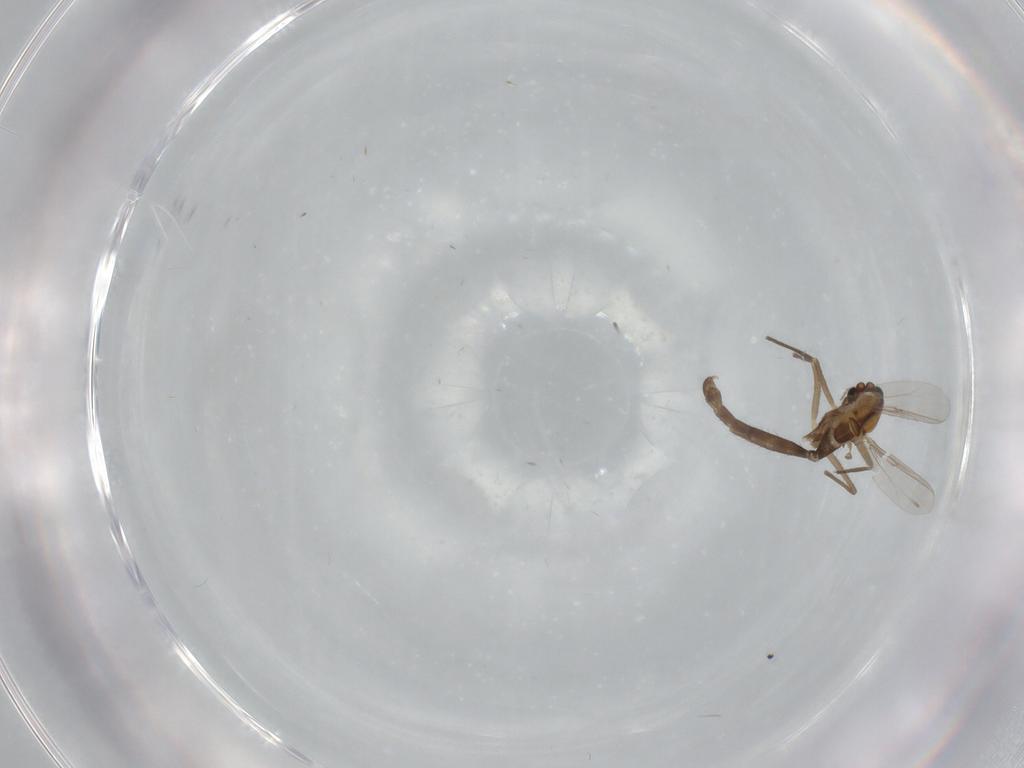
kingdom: Animalia
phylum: Arthropoda
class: Insecta
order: Diptera
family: Chironomidae
